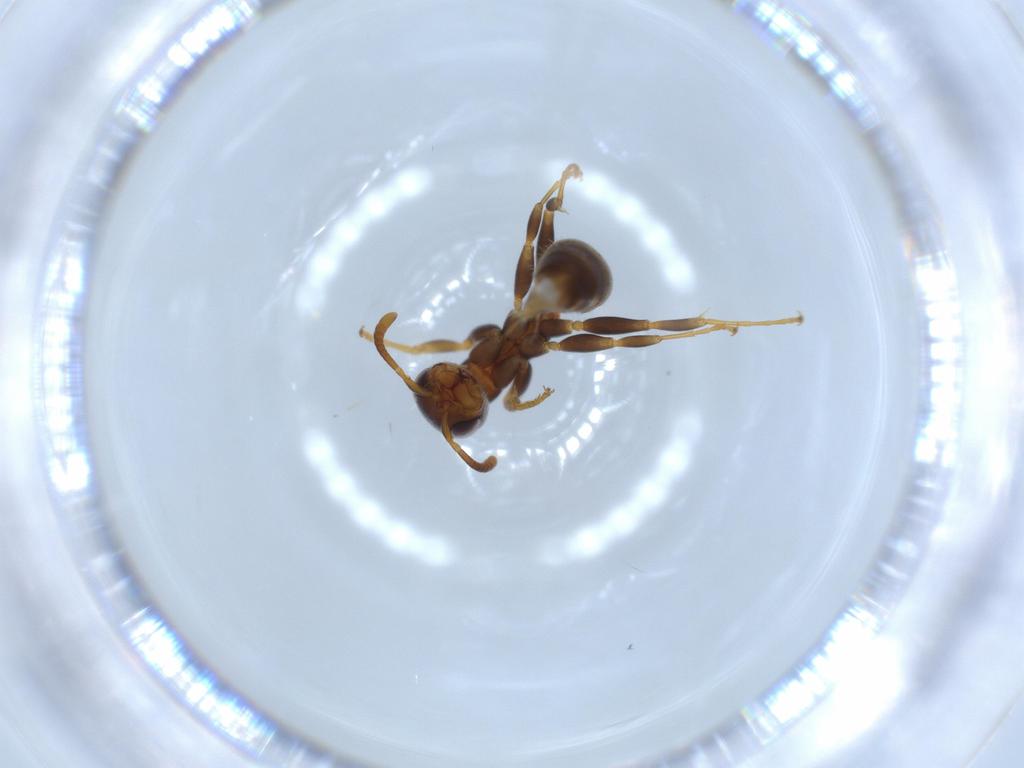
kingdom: Animalia
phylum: Arthropoda
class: Insecta
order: Hymenoptera
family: Formicidae
